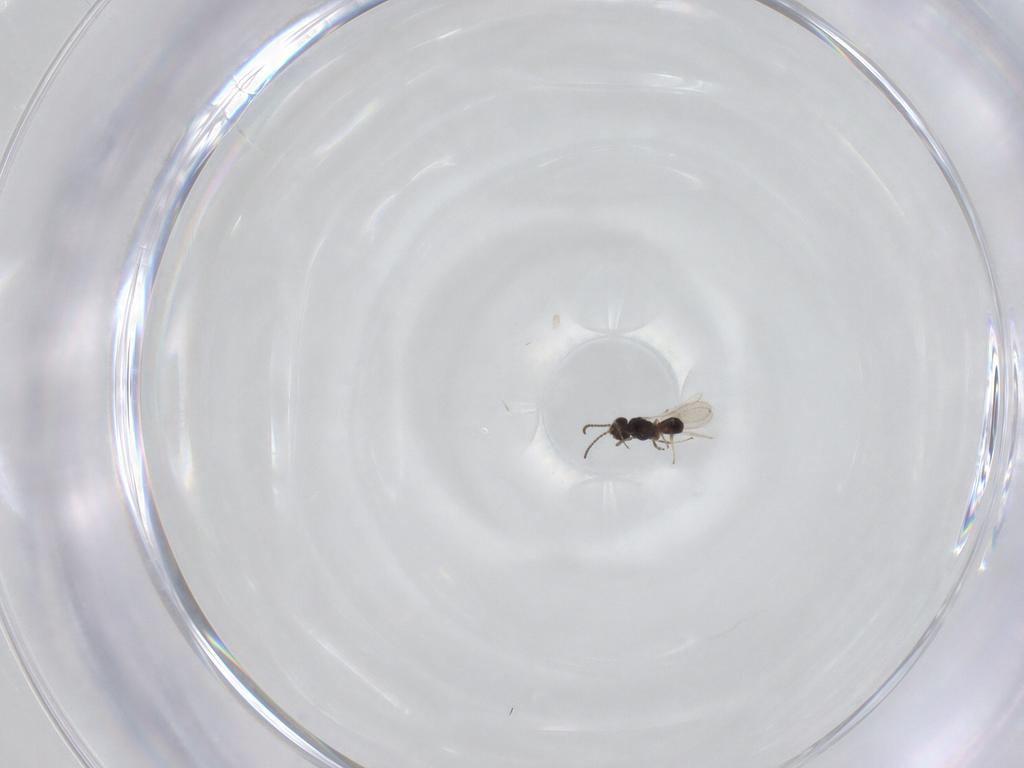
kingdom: Animalia
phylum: Arthropoda
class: Insecta
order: Hymenoptera
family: Scelionidae
